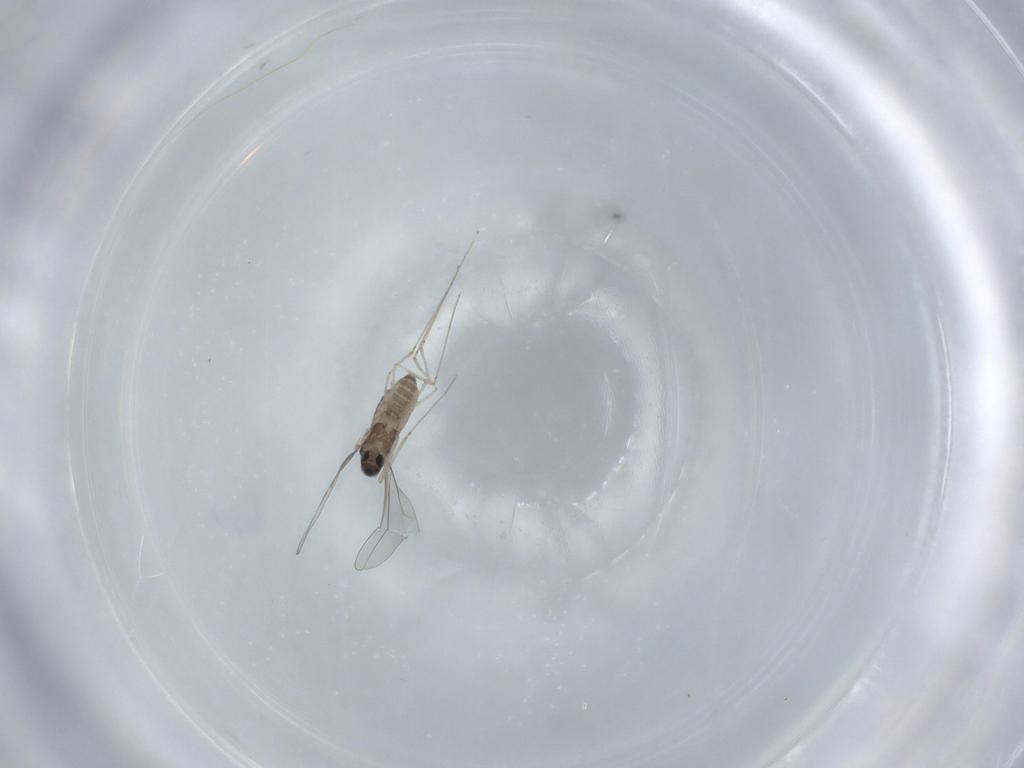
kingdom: Animalia
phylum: Arthropoda
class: Insecta
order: Diptera
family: Cecidomyiidae
